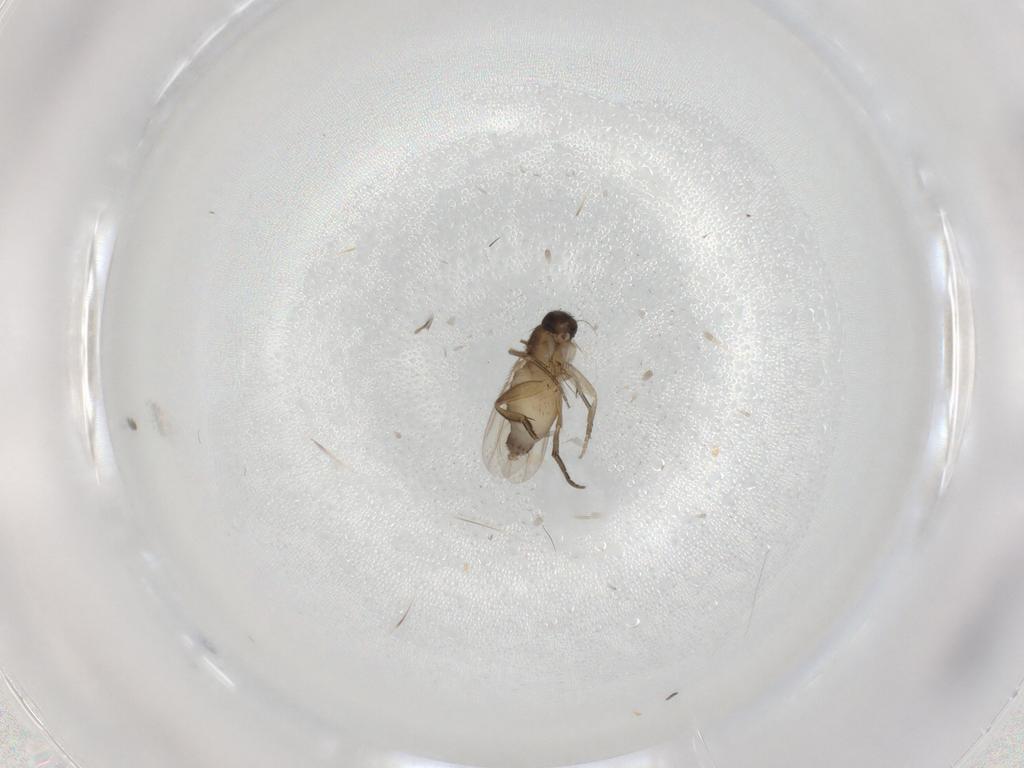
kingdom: Animalia
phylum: Arthropoda
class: Insecta
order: Diptera
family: Phoridae
